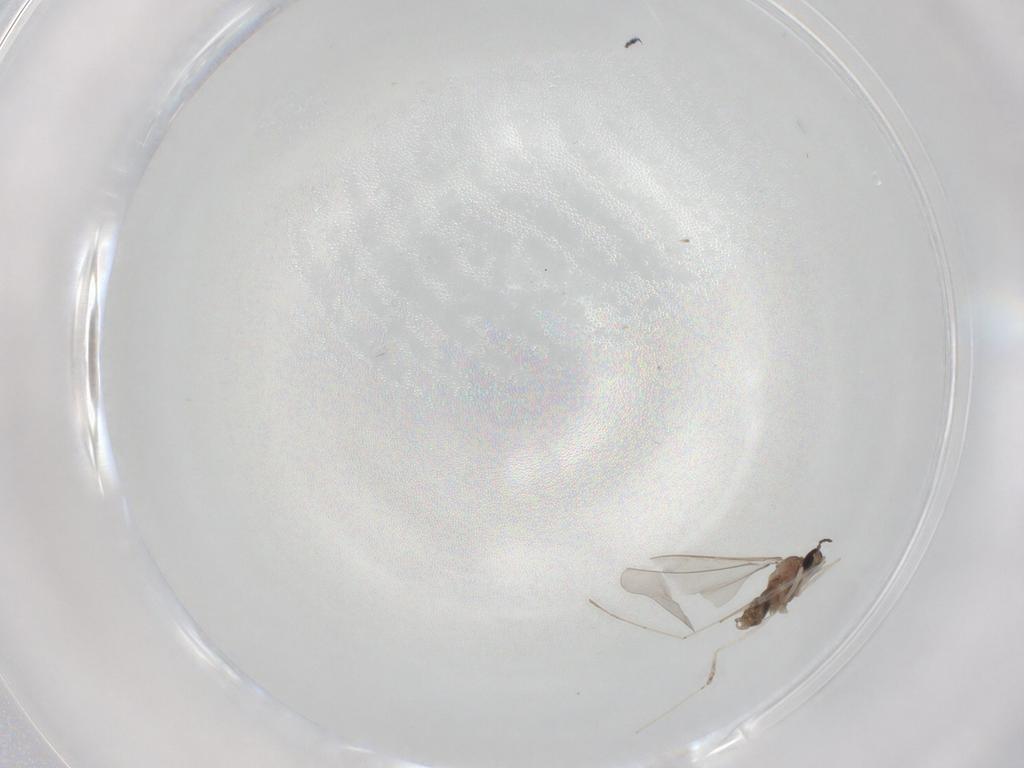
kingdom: Animalia
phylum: Arthropoda
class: Insecta
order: Diptera
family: Cecidomyiidae
